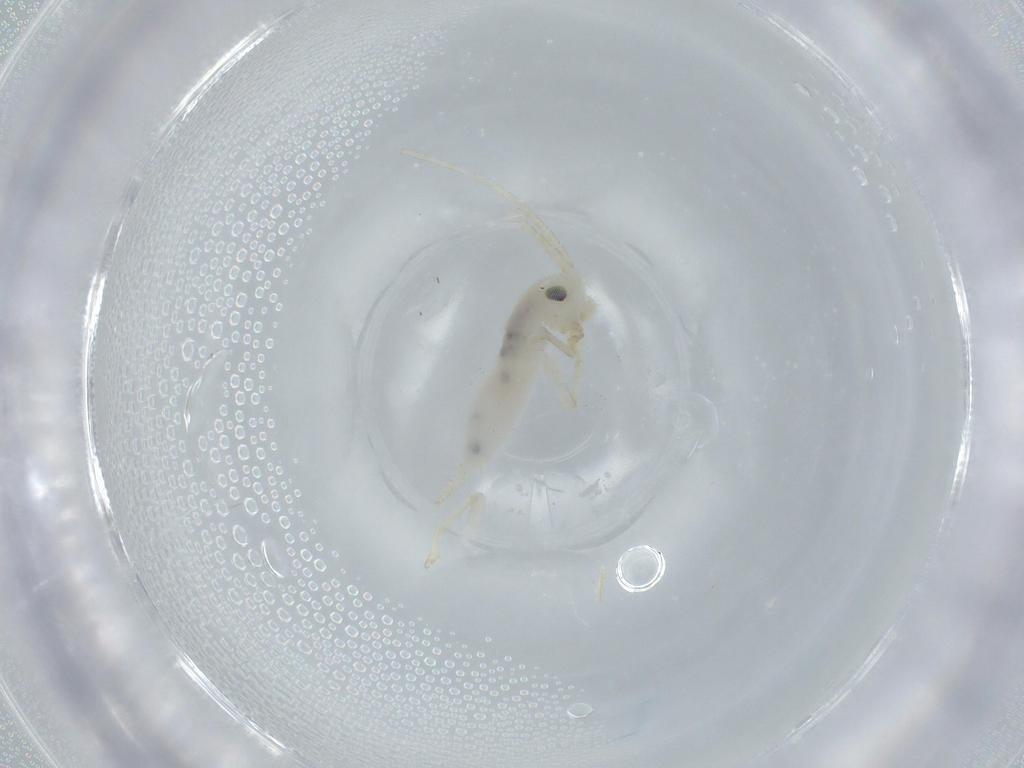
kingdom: Animalia
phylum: Arthropoda
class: Insecta
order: Orthoptera
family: Trigonidiidae
